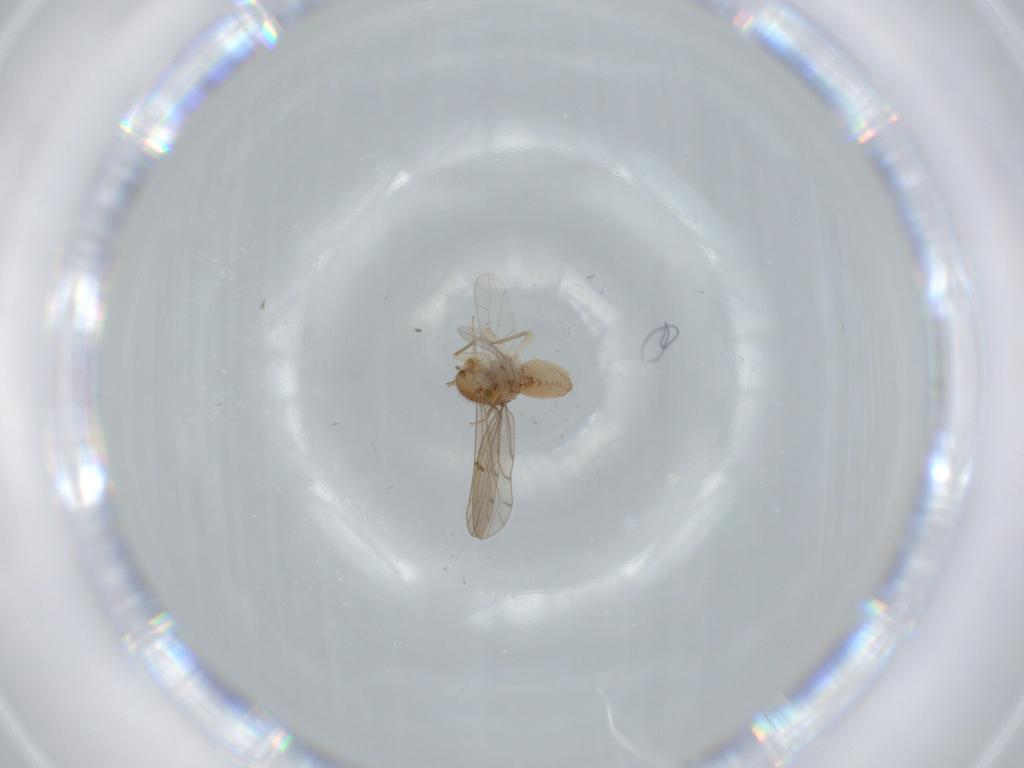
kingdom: Animalia
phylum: Arthropoda
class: Insecta
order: Psocodea
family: Ectopsocidae
